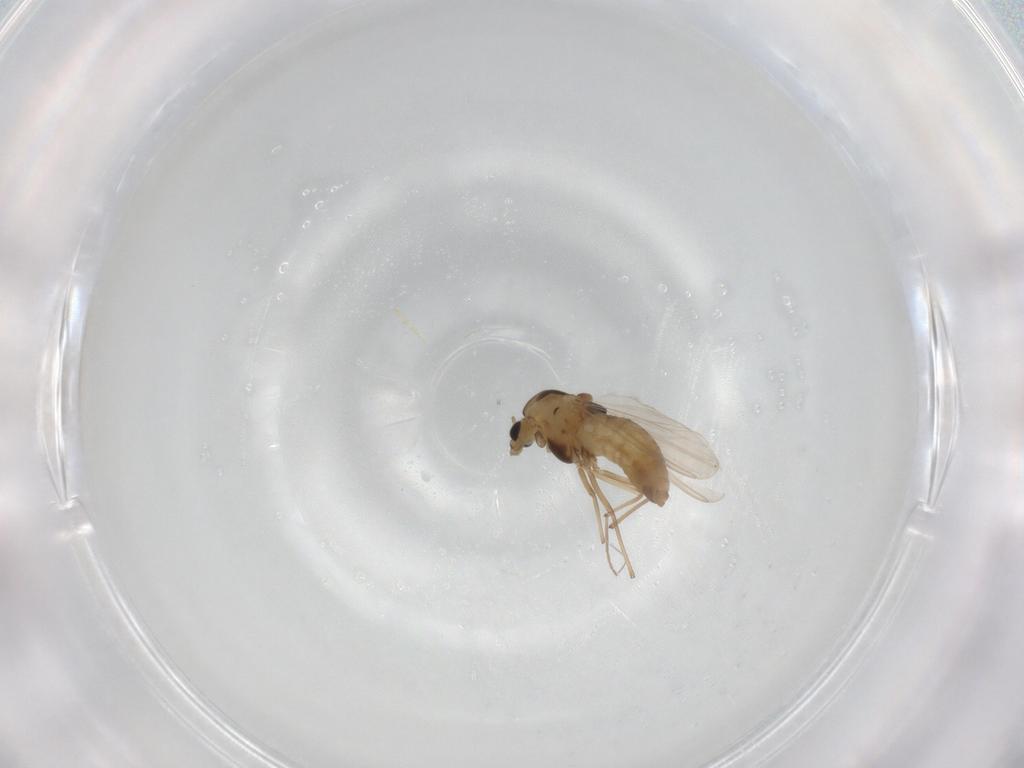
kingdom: Animalia
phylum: Arthropoda
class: Insecta
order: Diptera
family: Chironomidae
